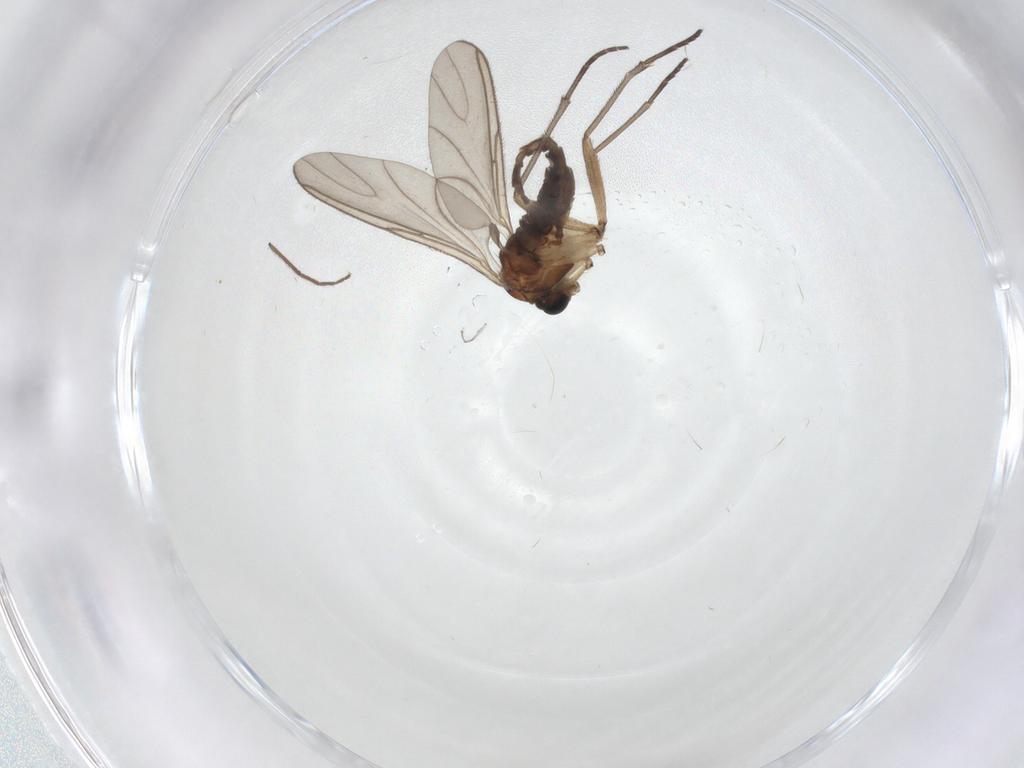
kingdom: Animalia
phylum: Arthropoda
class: Insecta
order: Diptera
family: Sciaridae
